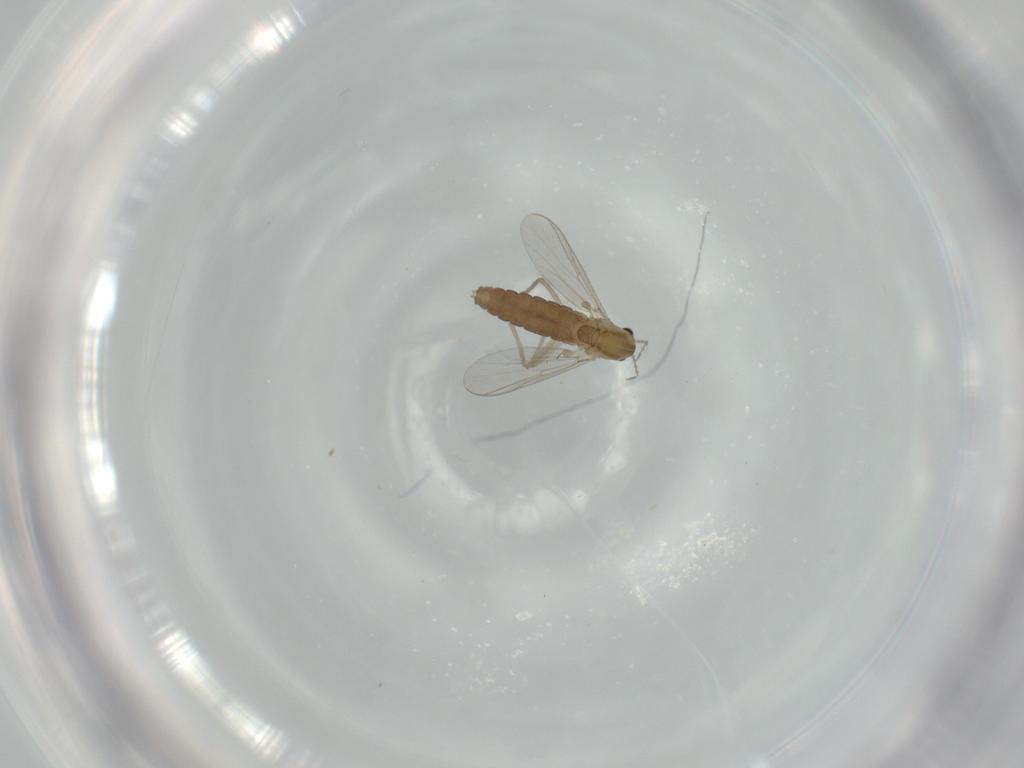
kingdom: Animalia
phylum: Arthropoda
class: Insecta
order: Diptera
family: Chironomidae
